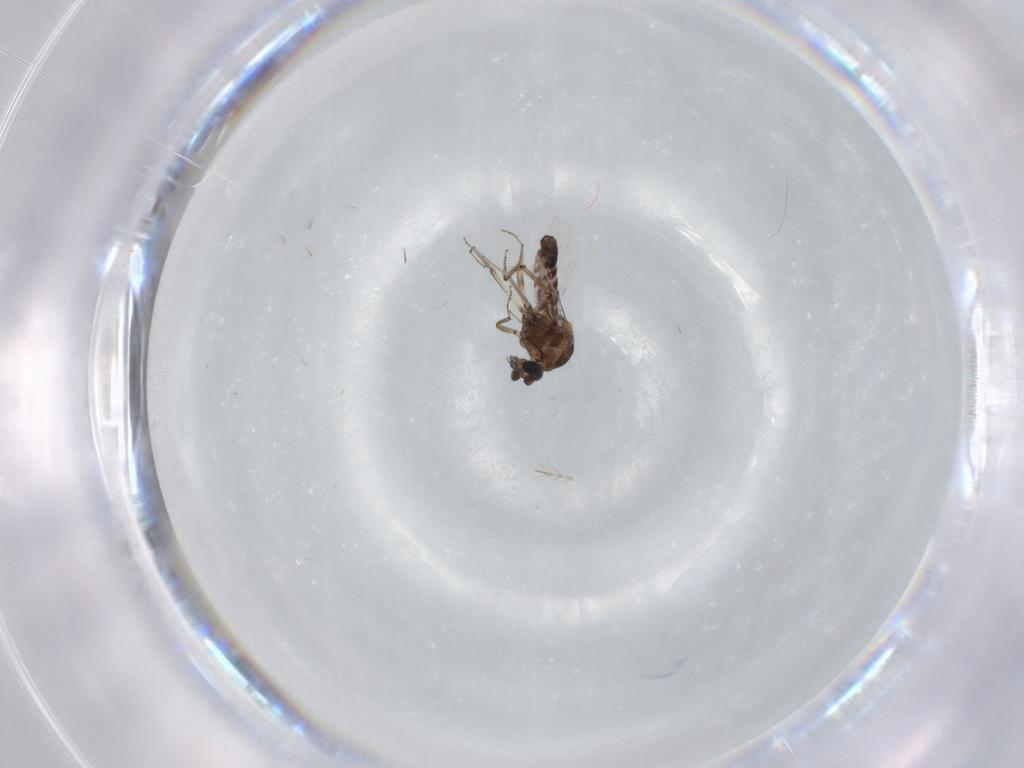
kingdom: Animalia
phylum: Arthropoda
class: Insecta
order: Diptera
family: Ceratopogonidae
